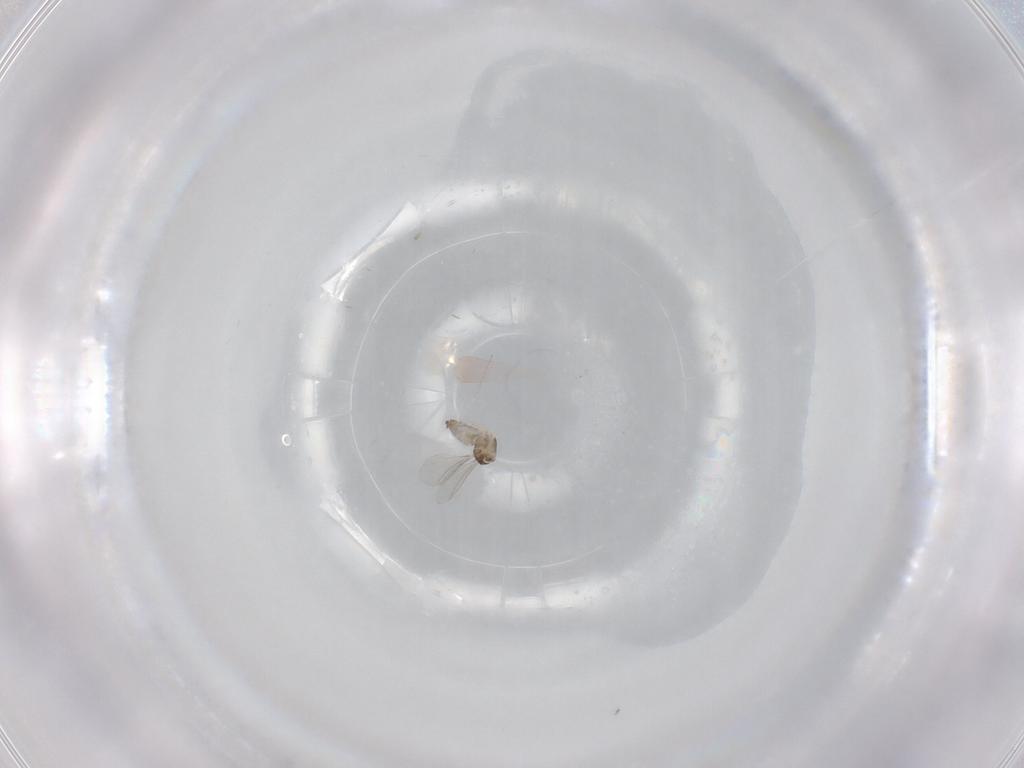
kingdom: Animalia
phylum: Arthropoda
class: Insecta
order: Diptera
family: Cecidomyiidae
